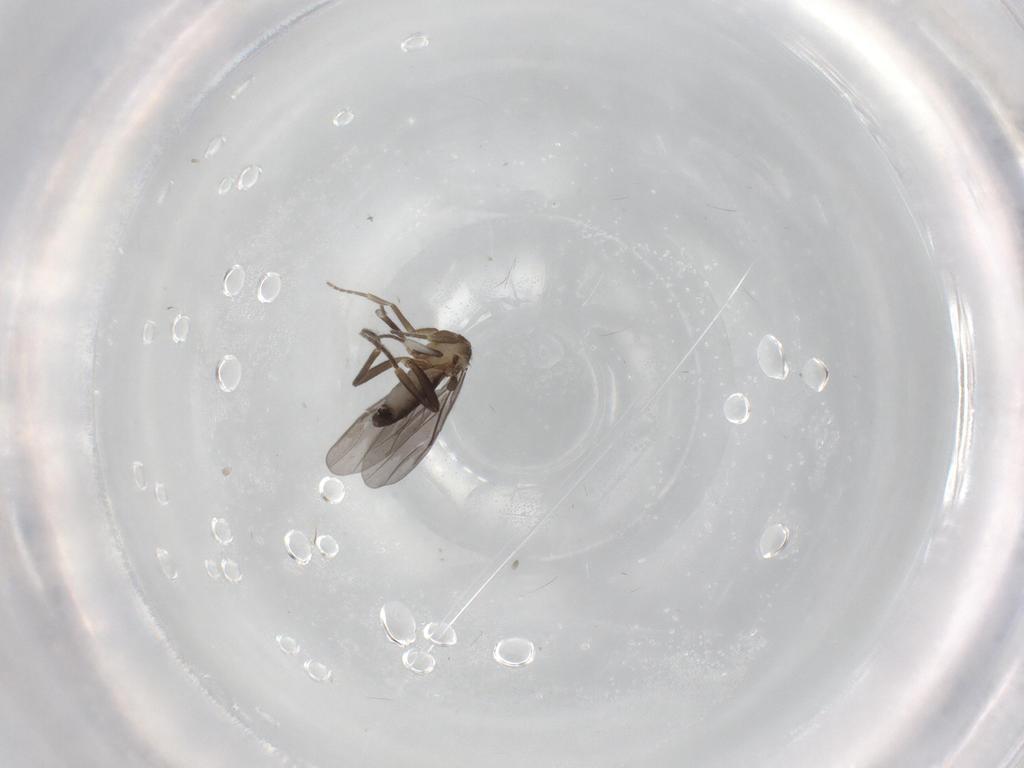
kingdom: Animalia
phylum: Arthropoda
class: Insecta
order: Diptera
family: Phoridae
